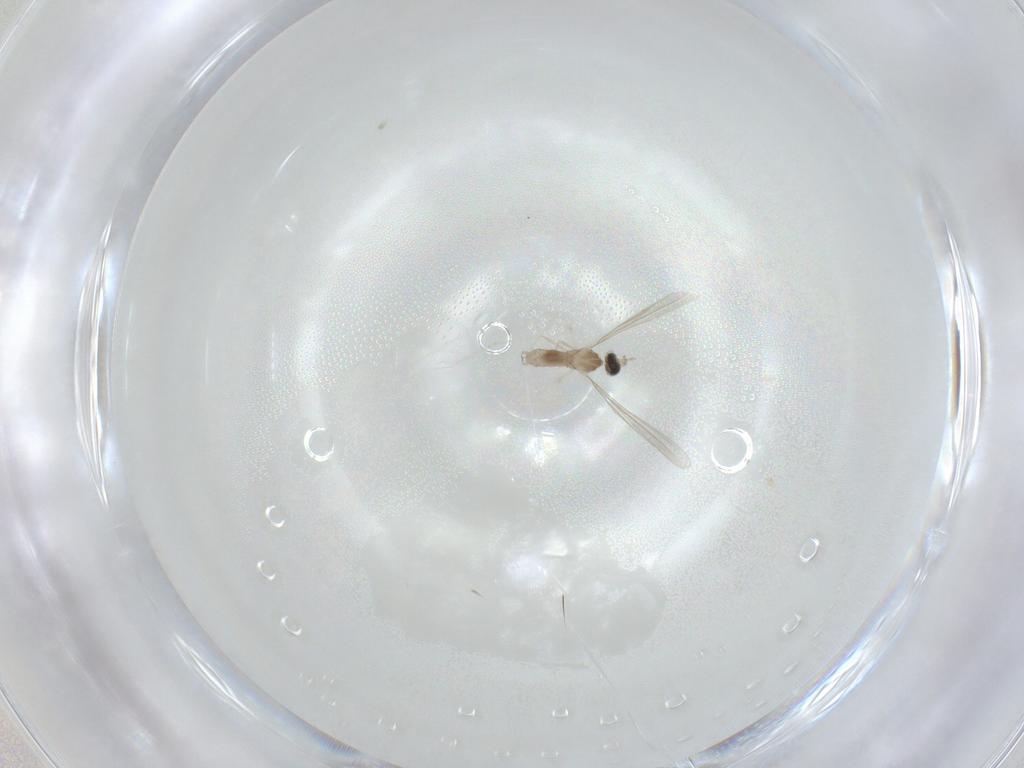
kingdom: Animalia
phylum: Arthropoda
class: Insecta
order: Diptera
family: Cecidomyiidae
